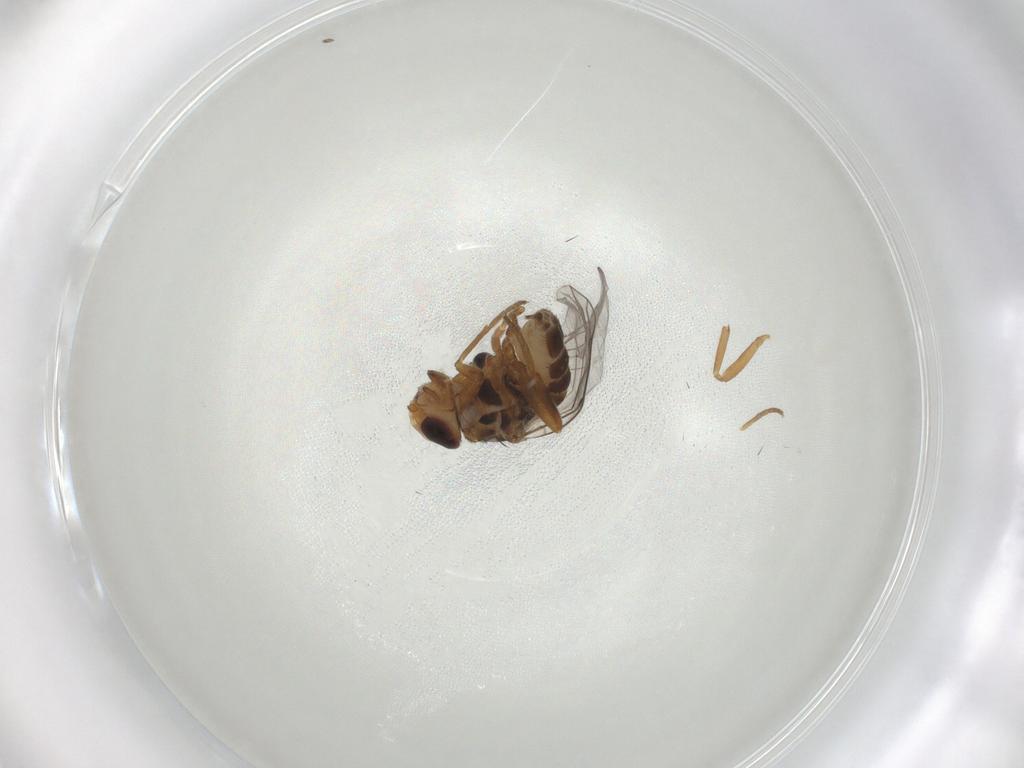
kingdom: Animalia
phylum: Arthropoda
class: Insecta
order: Diptera
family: Chloropidae
